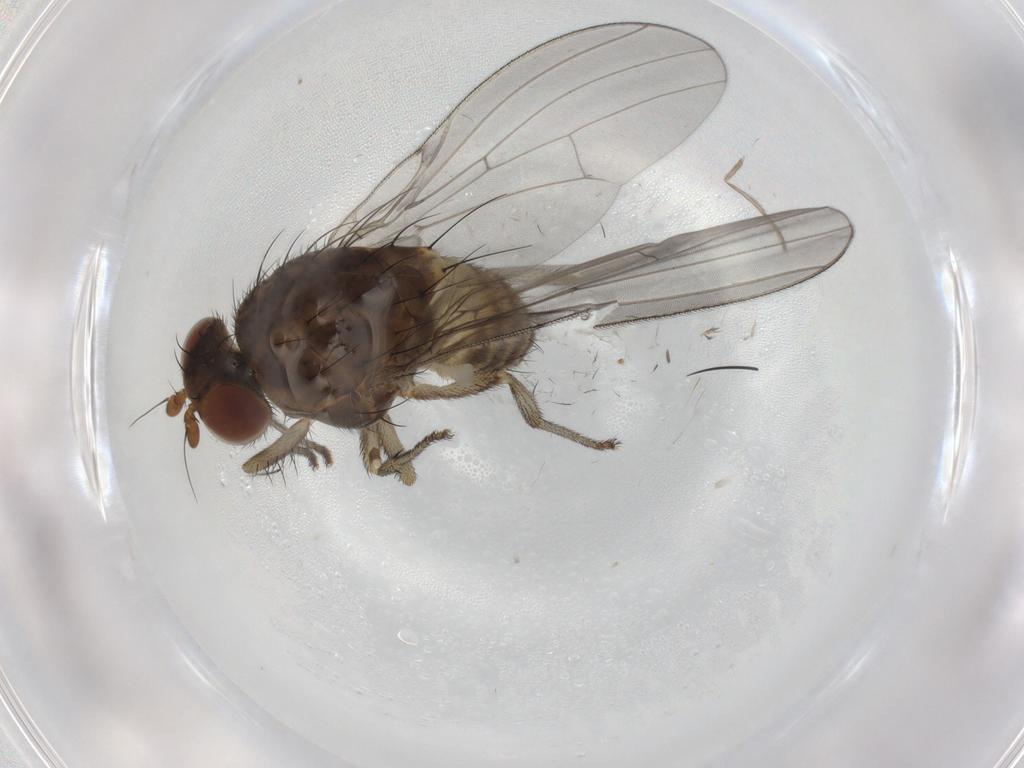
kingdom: Animalia
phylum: Arthropoda
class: Insecta
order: Diptera
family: Lauxaniidae
